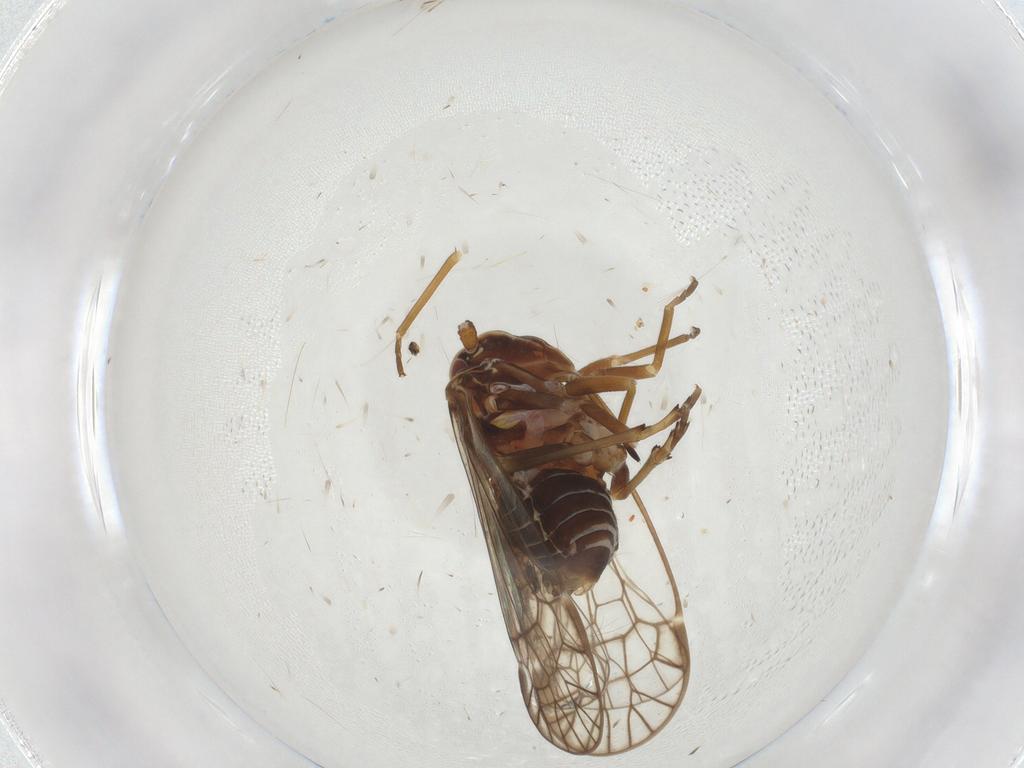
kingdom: Animalia
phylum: Arthropoda
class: Insecta
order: Hemiptera
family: Kinnaridae
